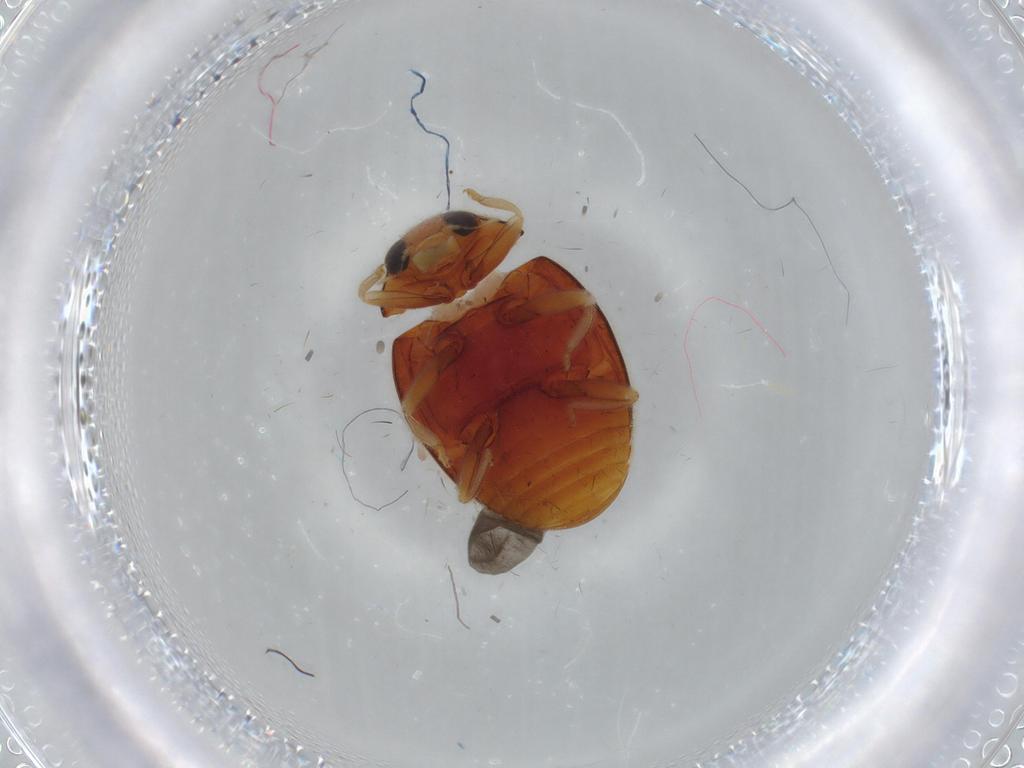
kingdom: Animalia
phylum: Arthropoda
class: Insecta
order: Coleoptera
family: Coccinellidae
